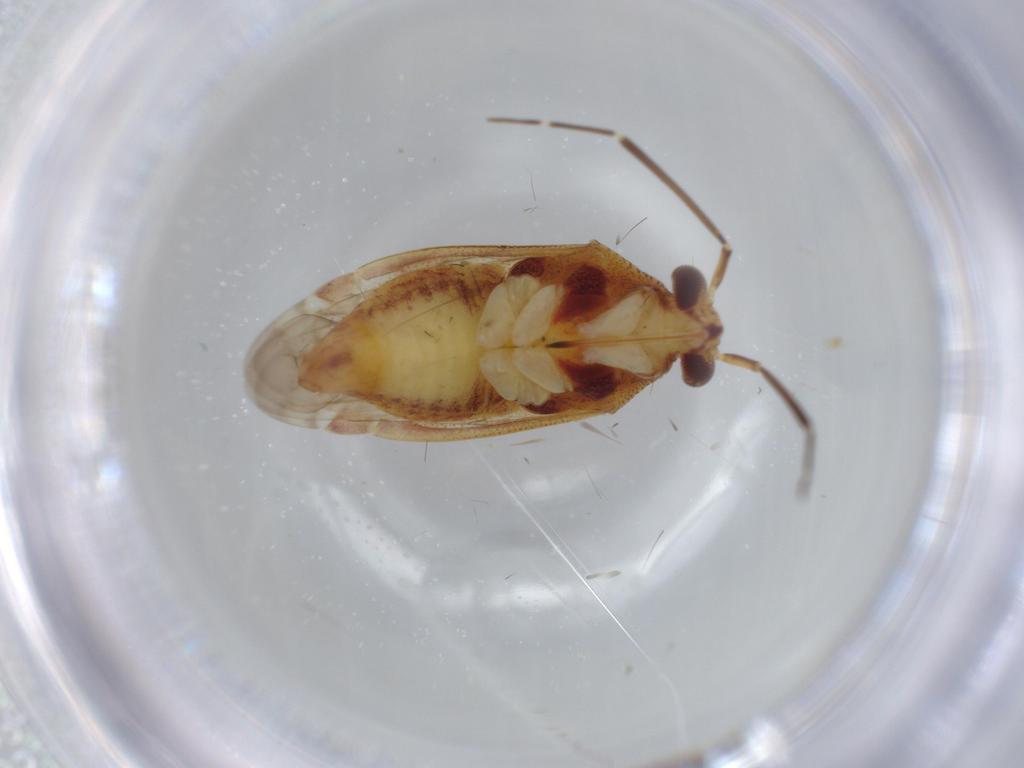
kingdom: Animalia
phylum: Arthropoda
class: Insecta
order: Hemiptera
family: Miridae
